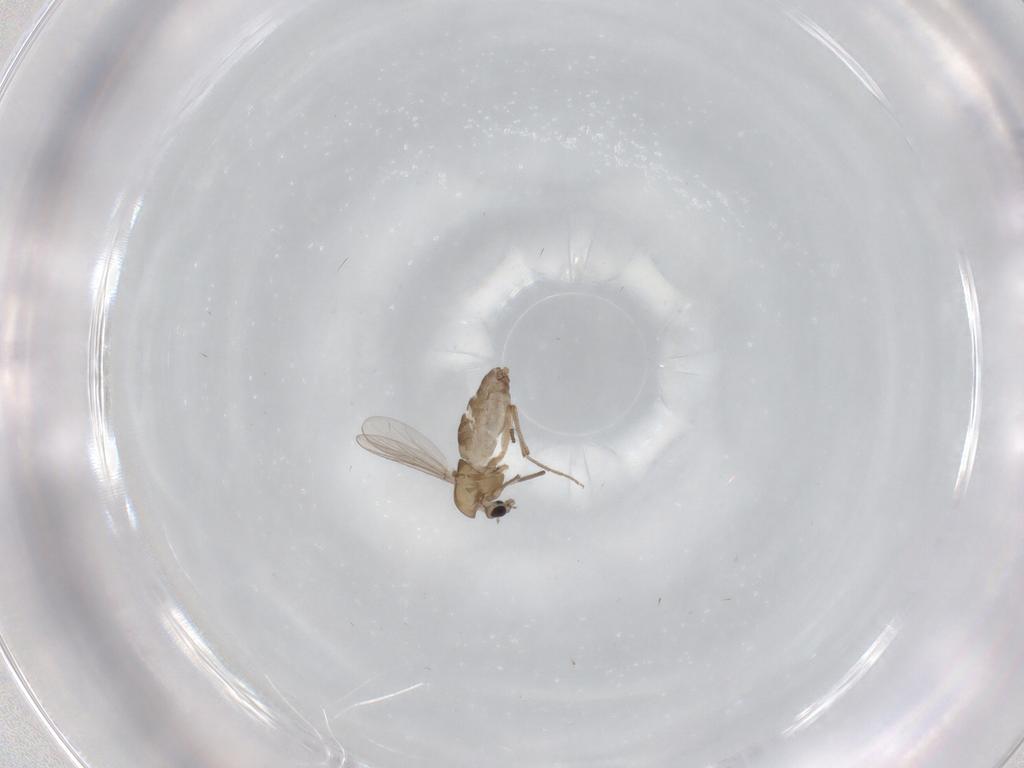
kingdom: Animalia
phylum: Arthropoda
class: Insecta
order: Diptera
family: Chironomidae
